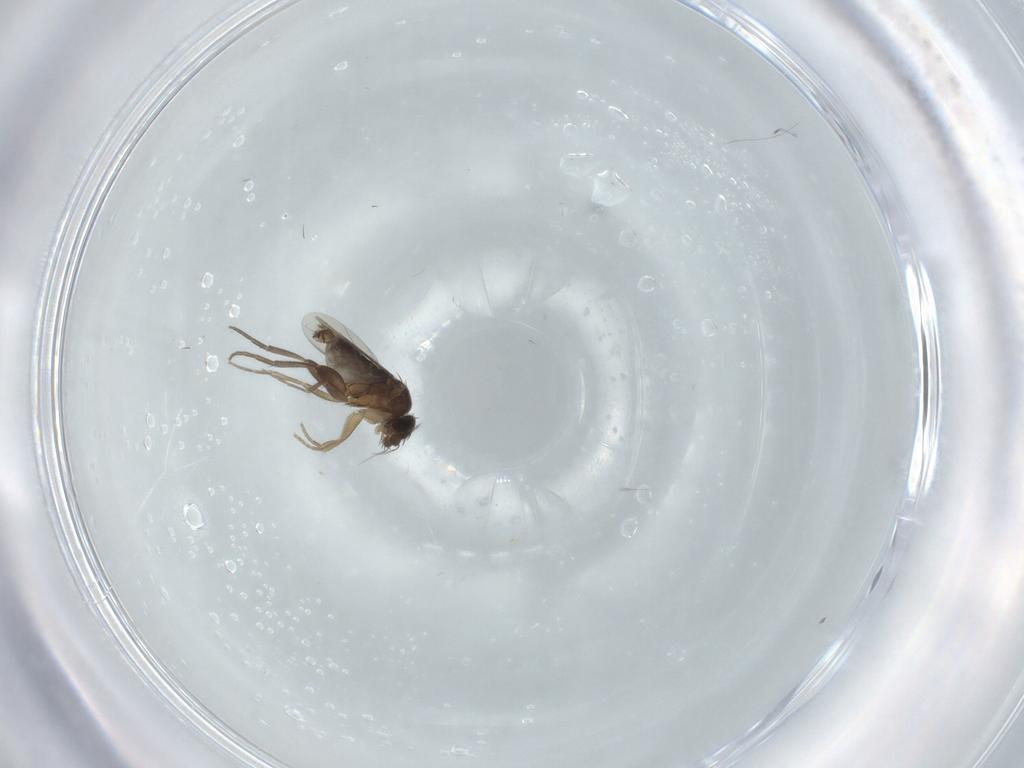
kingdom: Animalia
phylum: Arthropoda
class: Insecta
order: Diptera
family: Phoridae
